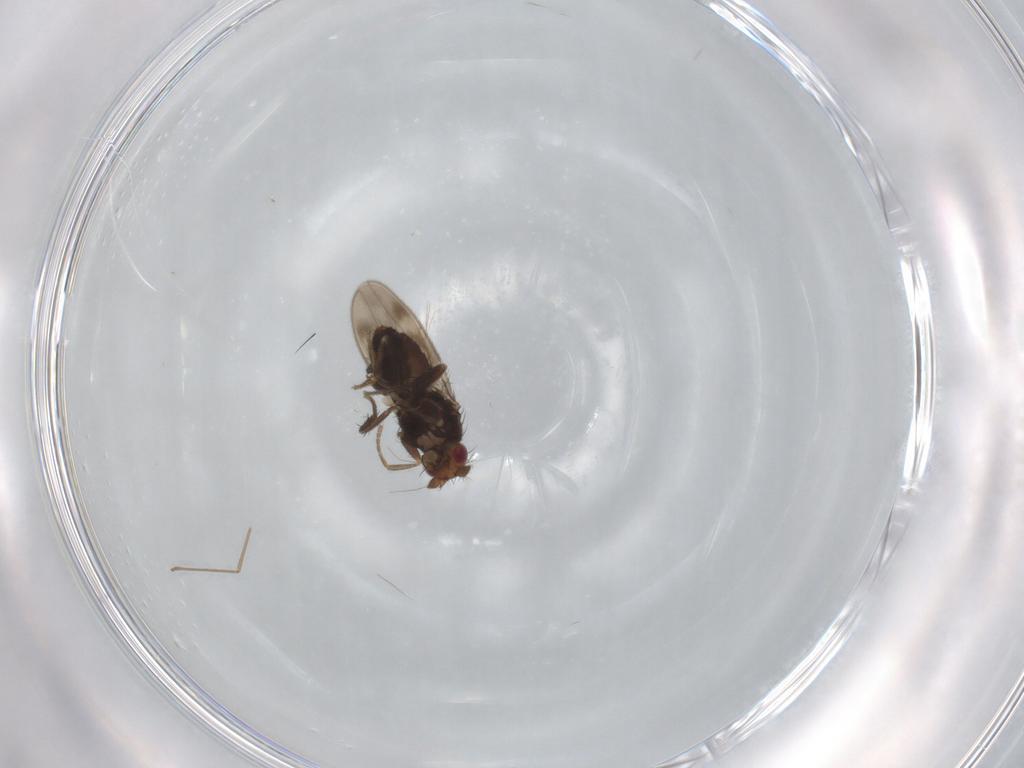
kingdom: Animalia
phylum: Arthropoda
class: Insecta
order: Diptera
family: Sphaeroceridae
